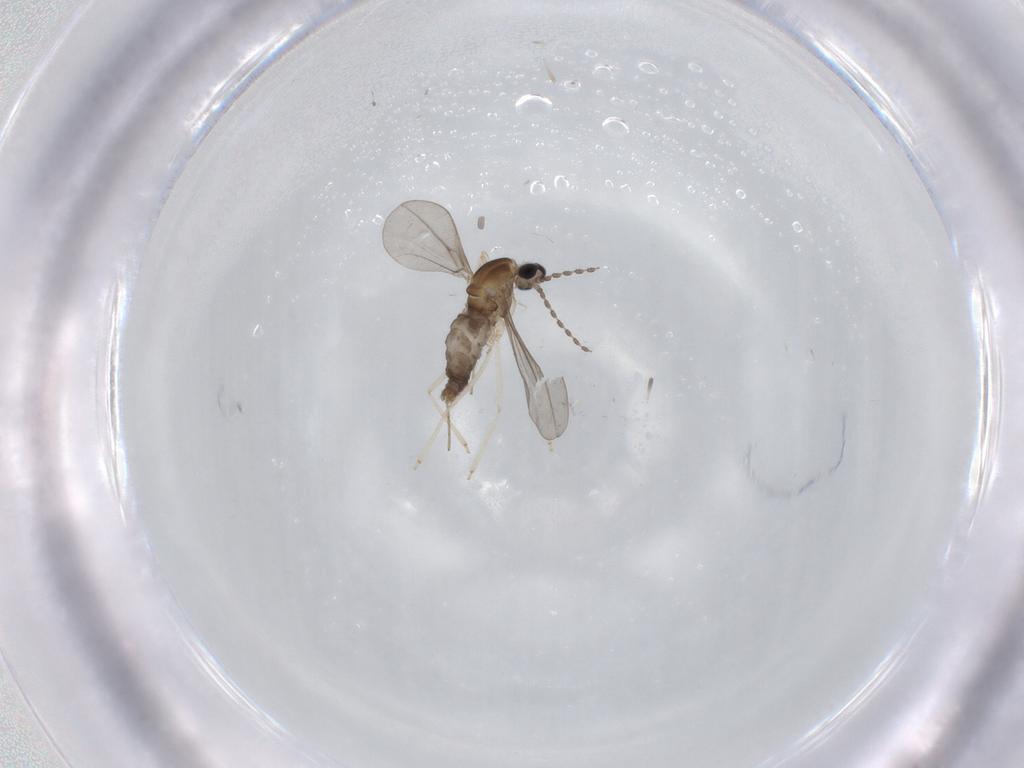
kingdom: Animalia
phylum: Arthropoda
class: Insecta
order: Diptera
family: Cecidomyiidae
